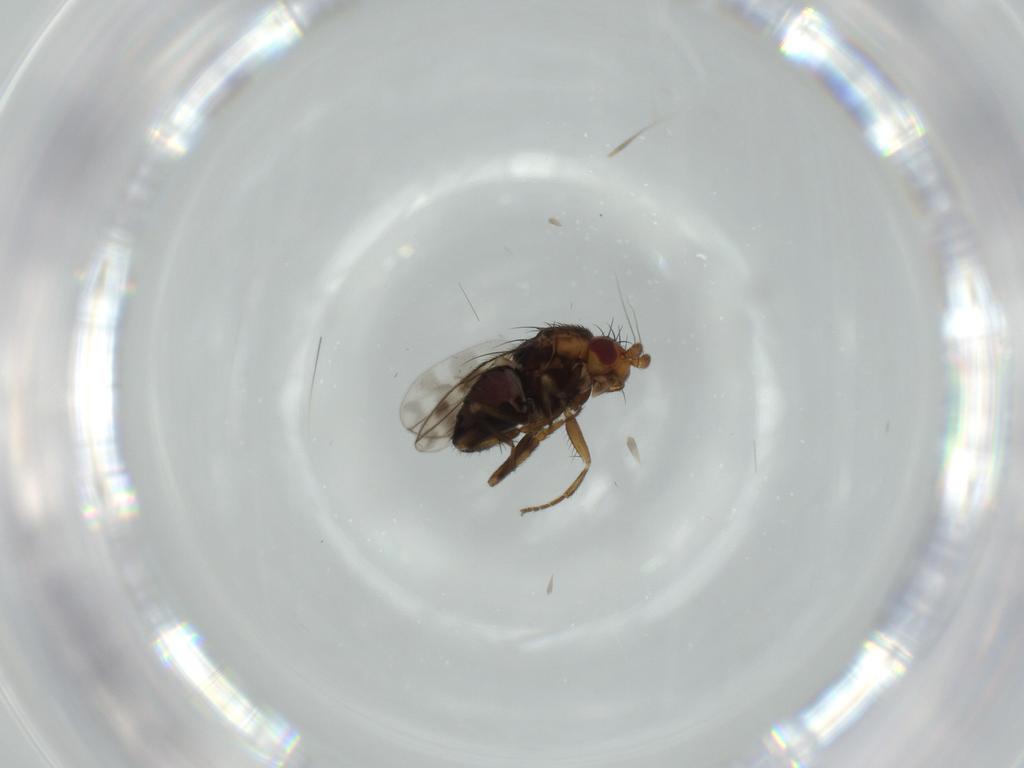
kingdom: Animalia
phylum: Arthropoda
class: Insecta
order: Diptera
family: Sphaeroceridae
